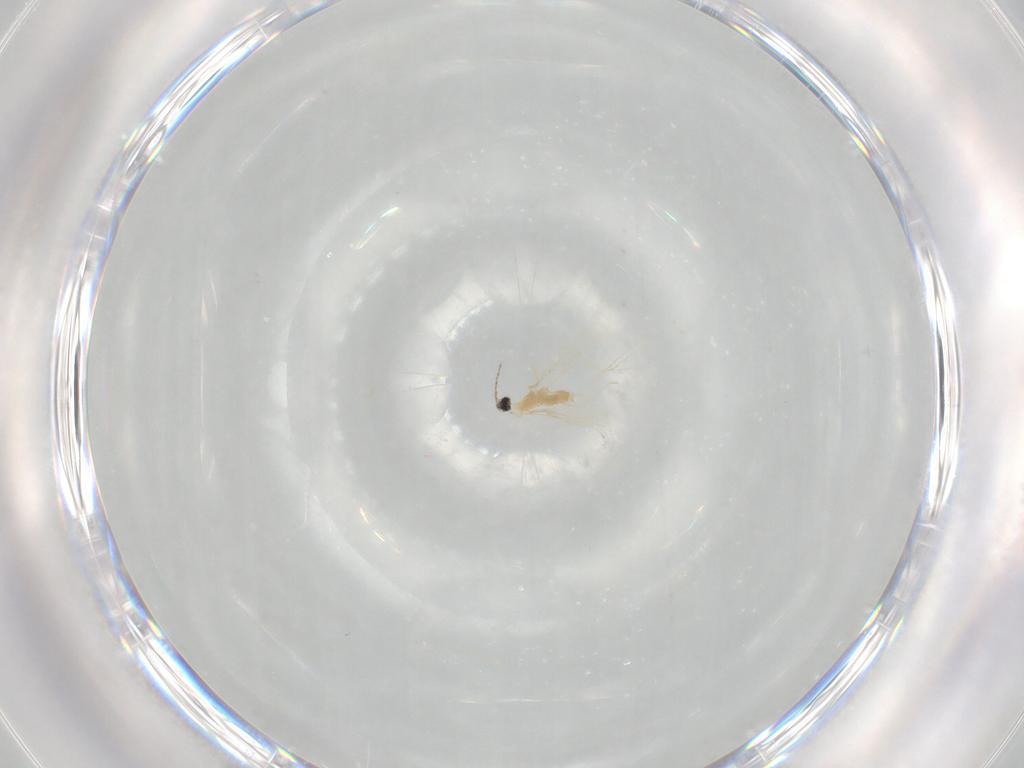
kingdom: Animalia
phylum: Arthropoda
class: Insecta
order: Diptera
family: Cecidomyiidae
